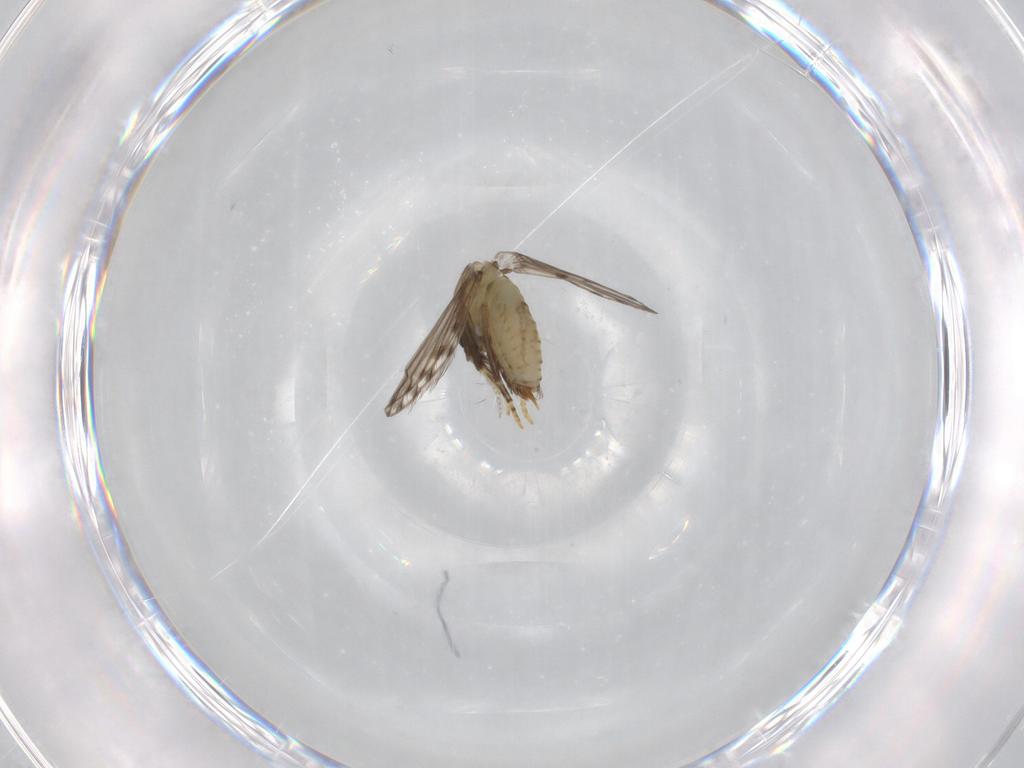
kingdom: Animalia
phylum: Arthropoda
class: Insecta
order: Diptera
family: Psychodidae
